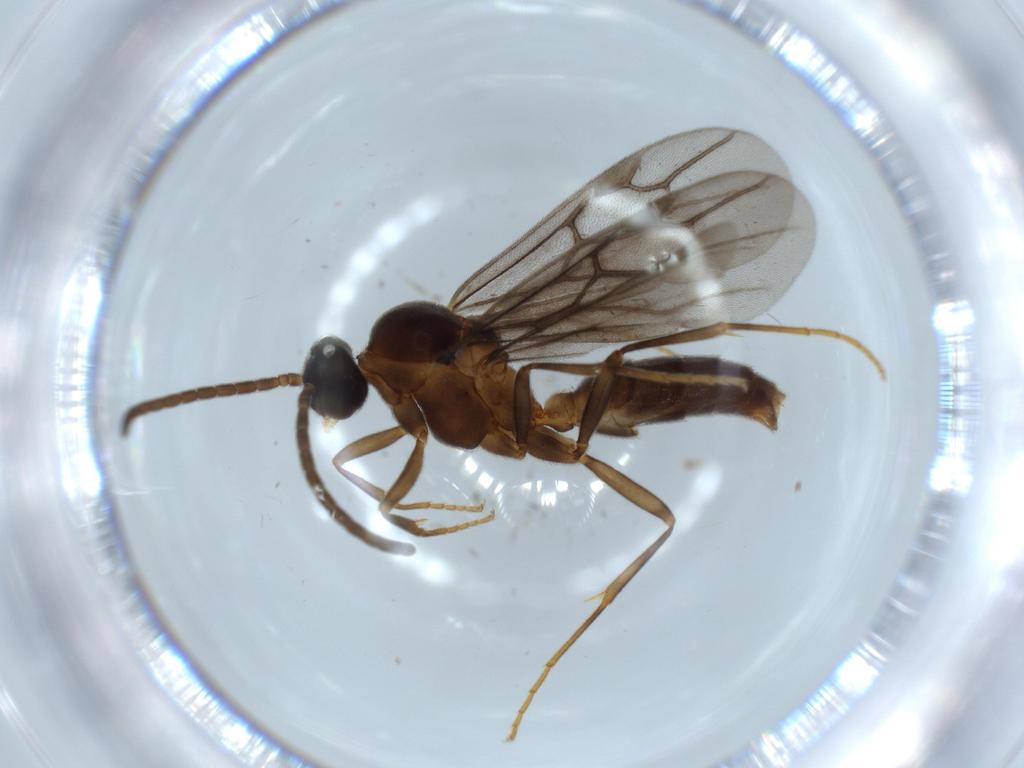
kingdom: Animalia
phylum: Arthropoda
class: Insecta
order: Hymenoptera
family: Formicidae
